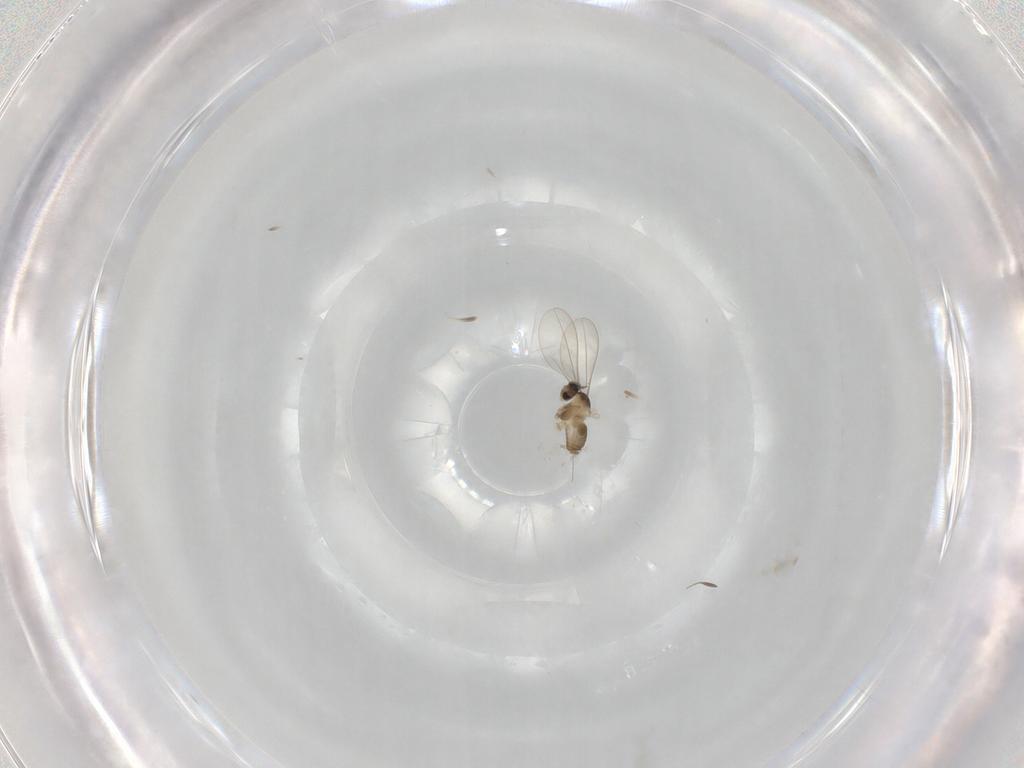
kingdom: Animalia
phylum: Arthropoda
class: Insecta
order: Diptera
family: Cecidomyiidae
